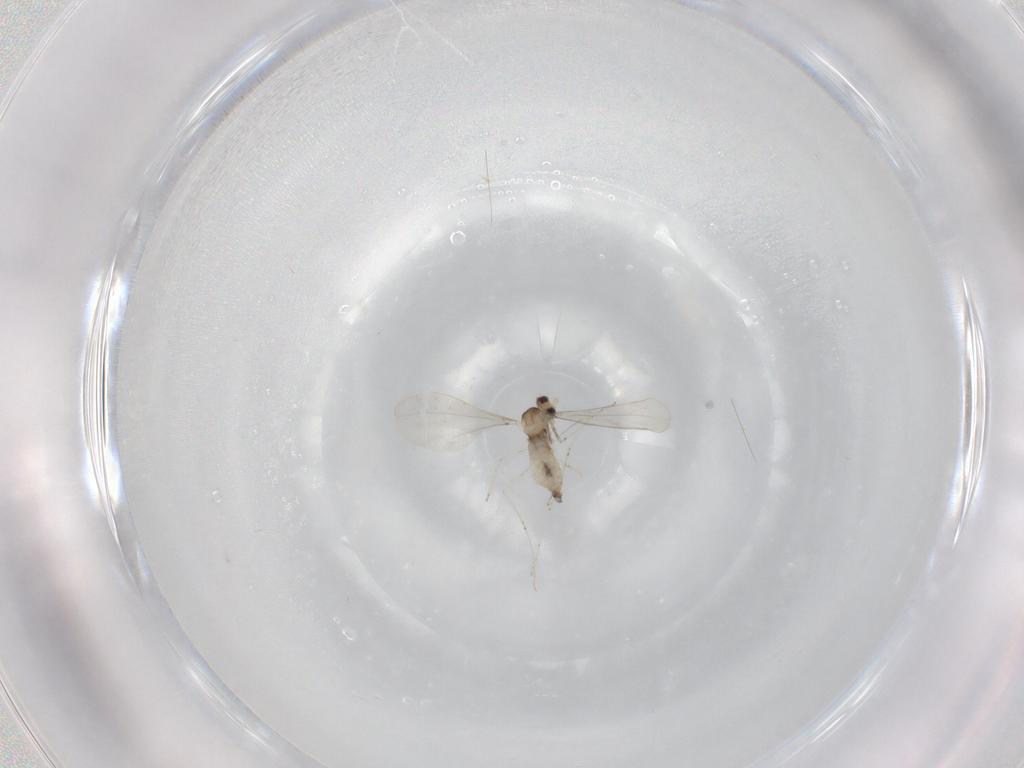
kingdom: Animalia
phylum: Arthropoda
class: Insecta
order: Diptera
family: Cecidomyiidae
